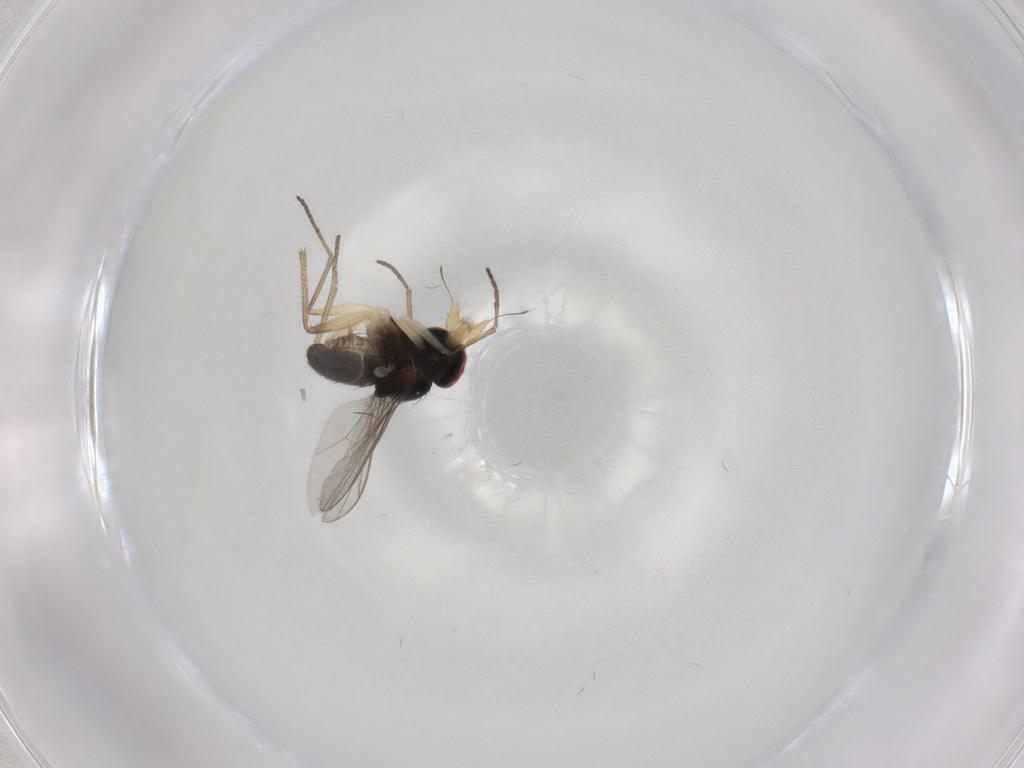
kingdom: Animalia
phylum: Arthropoda
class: Insecta
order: Diptera
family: Dolichopodidae
